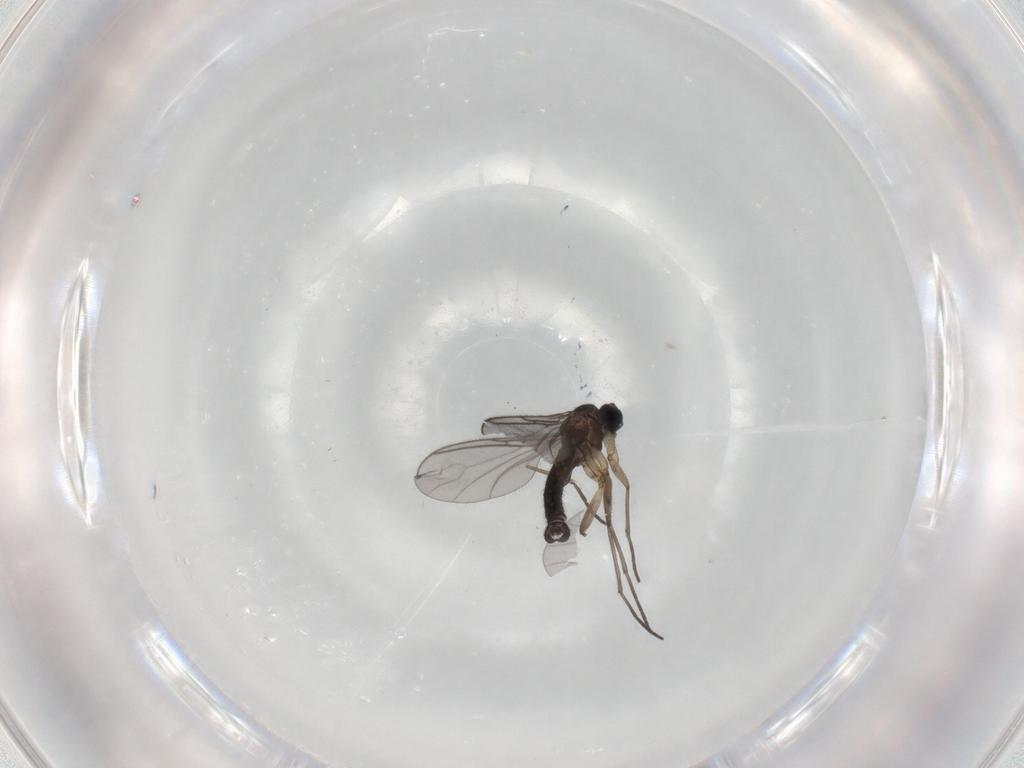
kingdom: Animalia
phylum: Arthropoda
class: Insecta
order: Diptera
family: Sciaridae
